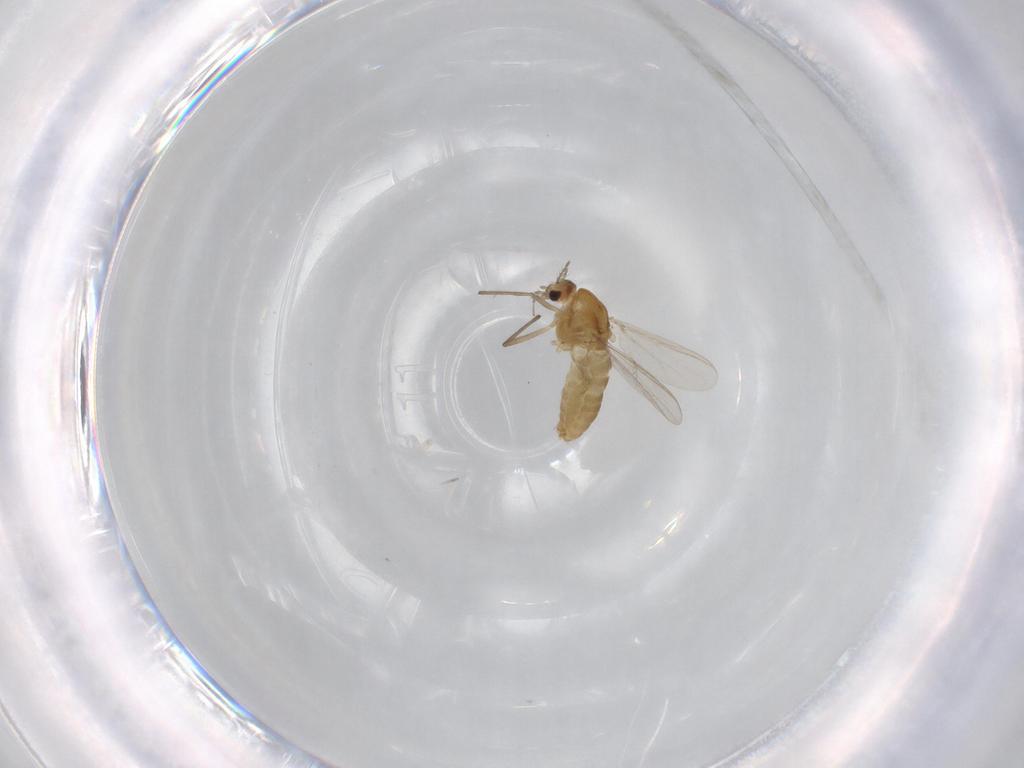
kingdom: Animalia
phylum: Arthropoda
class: Insecta
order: Diptera
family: Chironomidae
